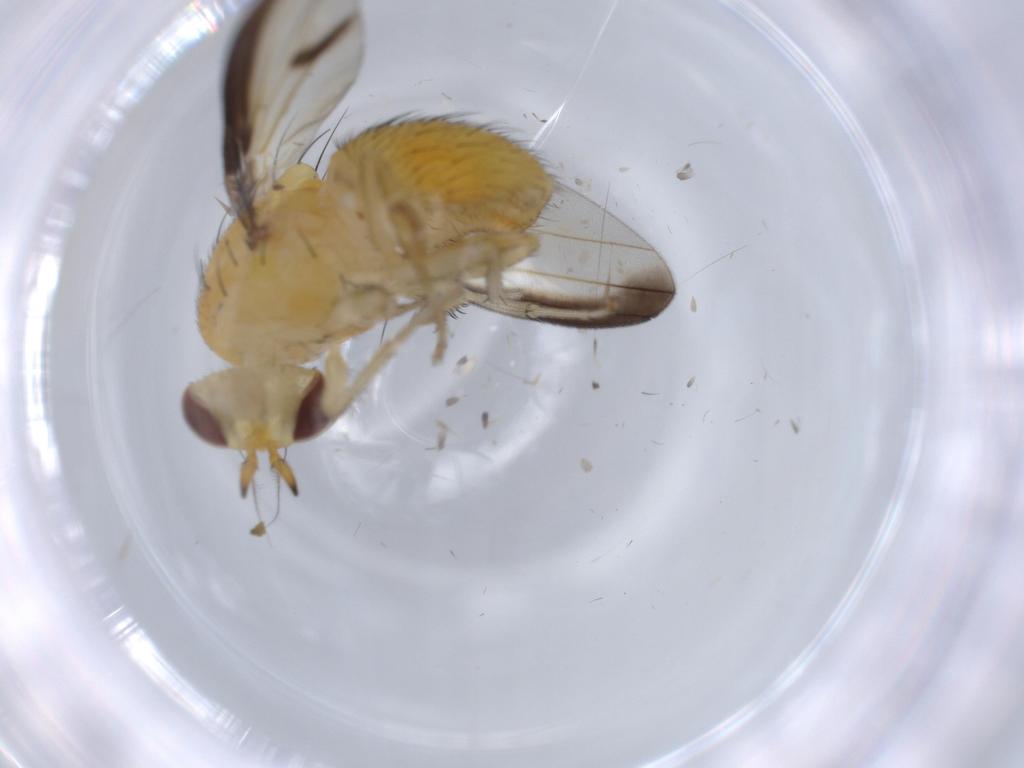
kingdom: Animalia
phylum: Arthropoda
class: Insecta
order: Diptera
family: Lauxaniidae
